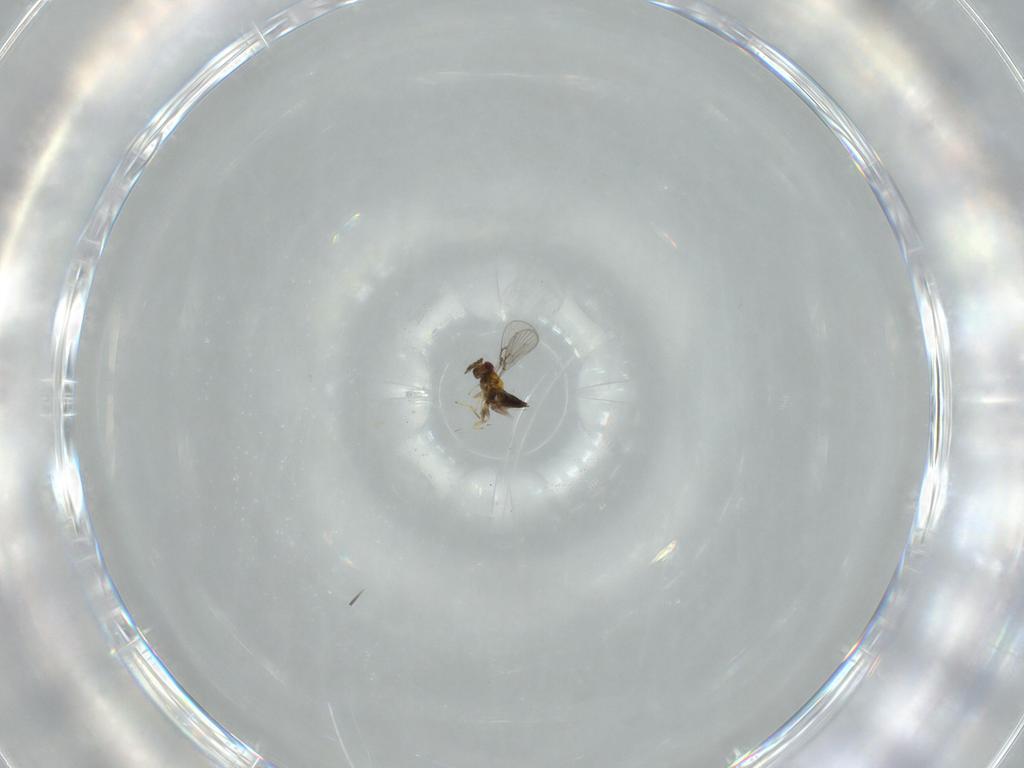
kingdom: Animalia
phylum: Arthropoda
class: Insecta
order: Hymenoptera
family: Trichogrammatidae
